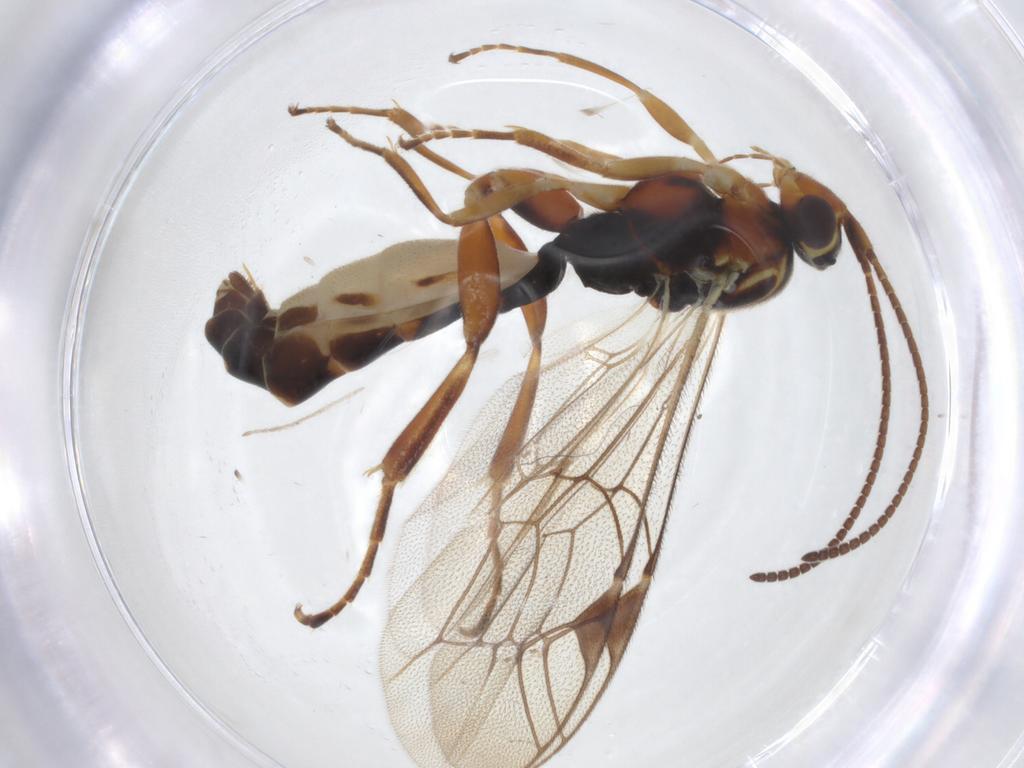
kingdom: Animalia
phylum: Arthropoda
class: Insecta
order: Hymenoptera
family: Ichneumonidae
